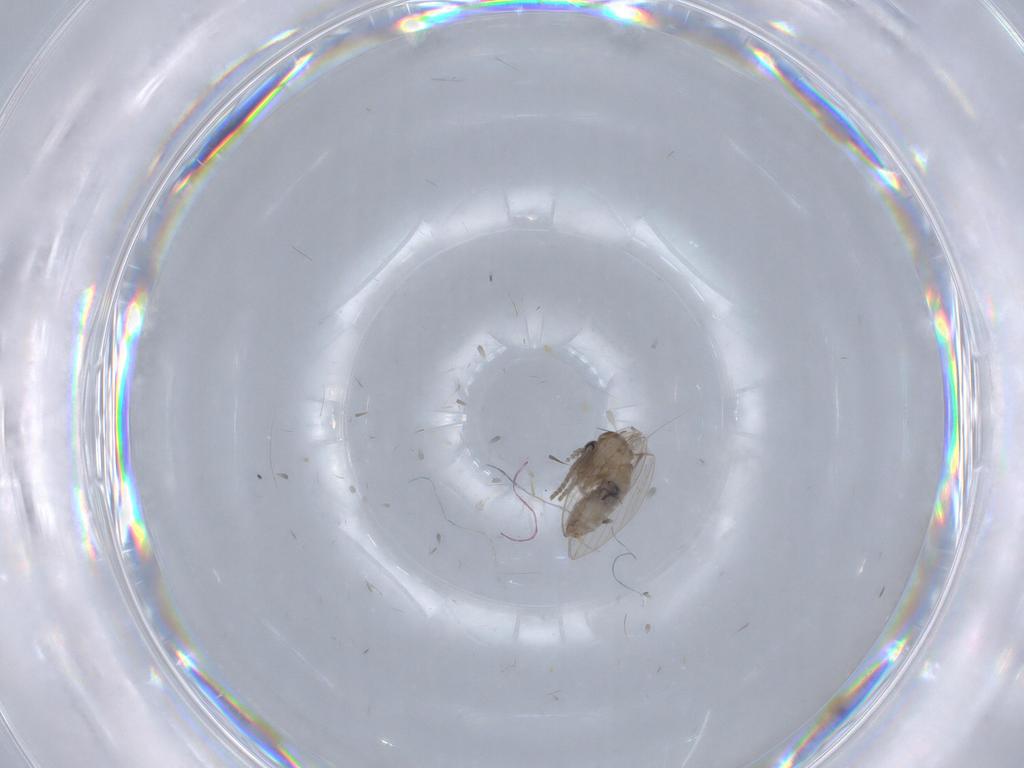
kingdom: Animalia
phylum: Arthropoda
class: Insecta
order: Diptera
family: Psychodidae
